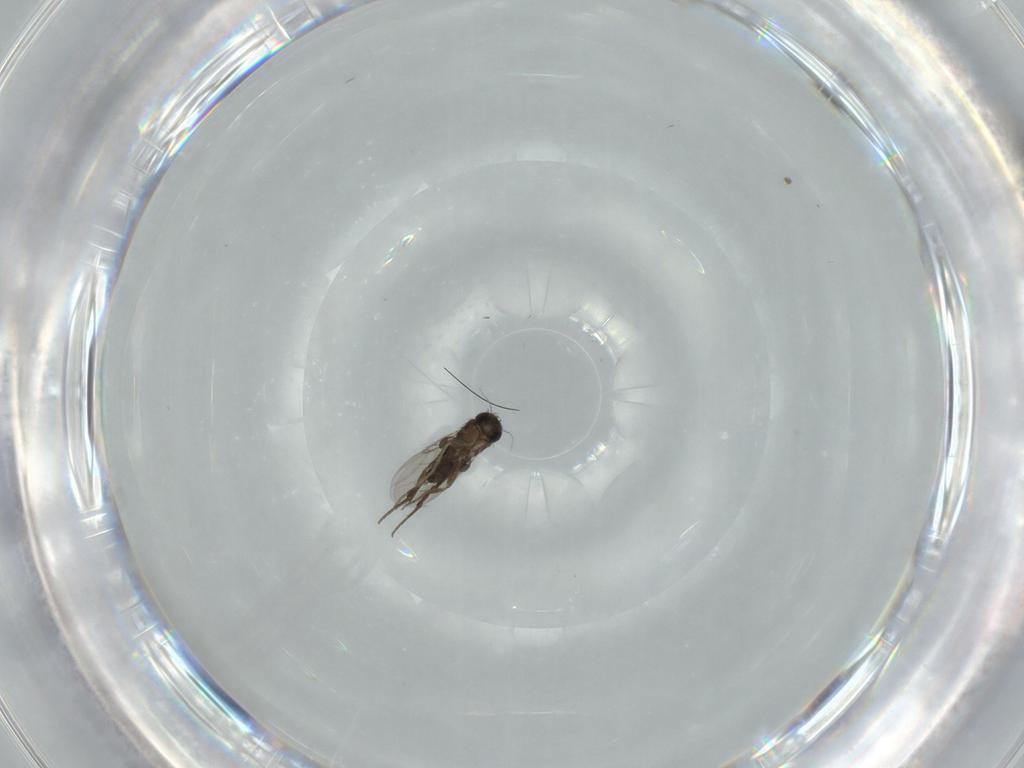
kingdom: Animalia
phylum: Arthropoda
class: Insecta
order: Diptera
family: Phoridae
